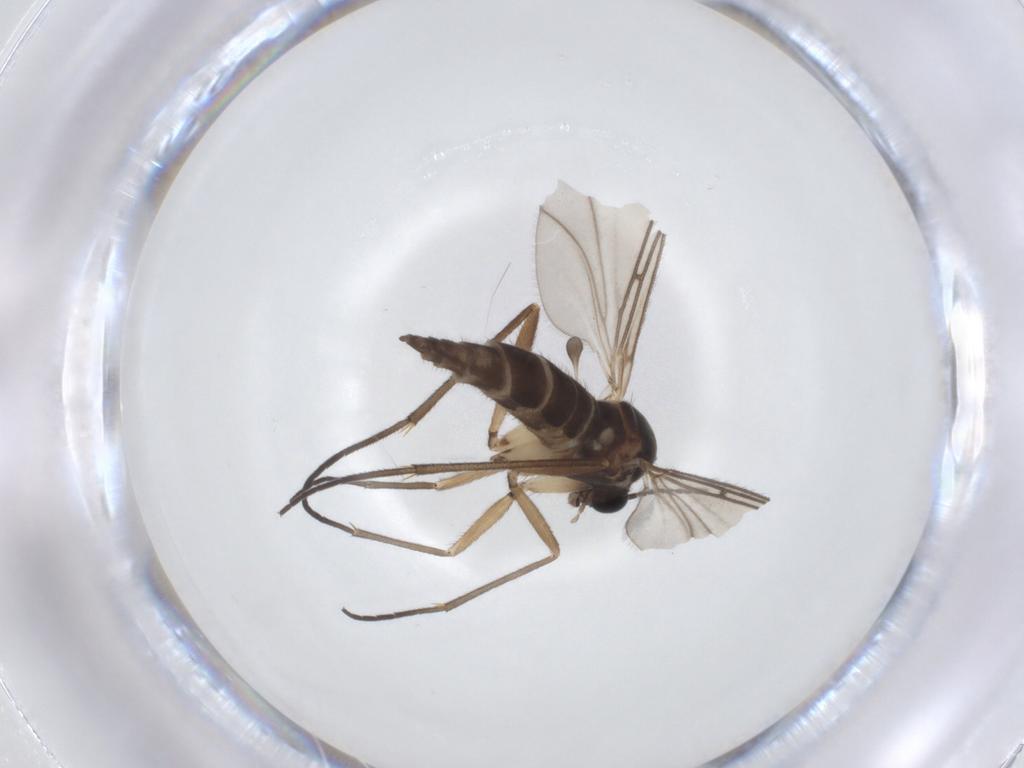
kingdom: Animalia
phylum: Arthropoda
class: Insecta
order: Diptera
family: Sciaridae
